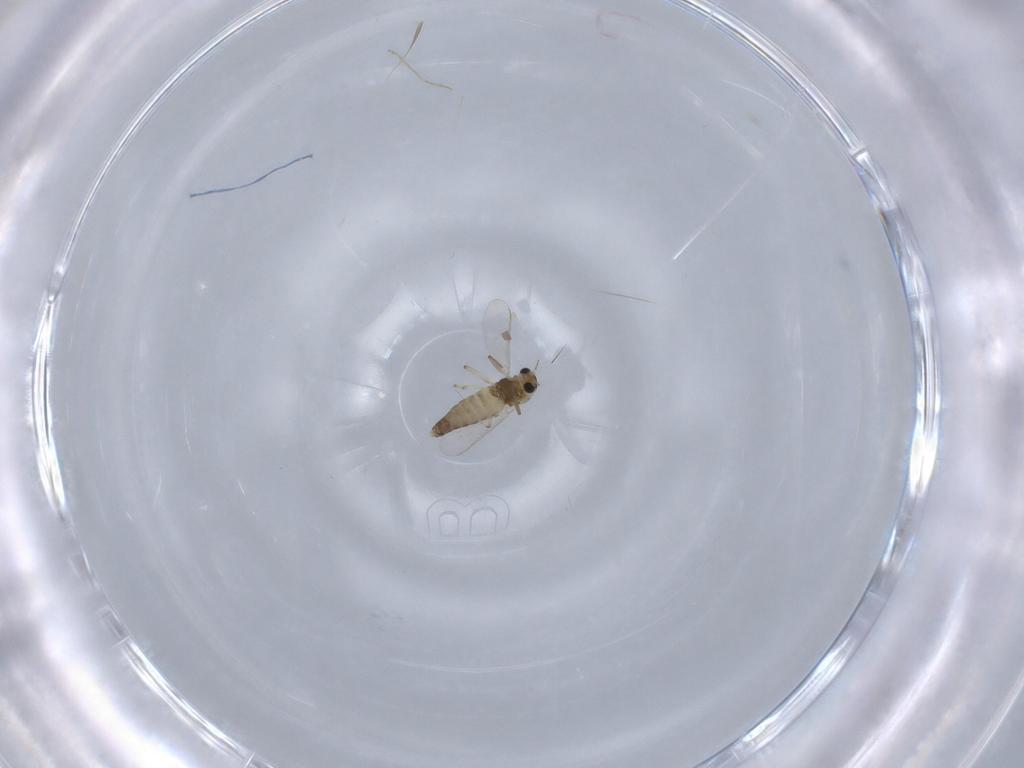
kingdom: Animalia
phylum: Arthropoda
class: Insecta
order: Diptera
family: Chironomidae
